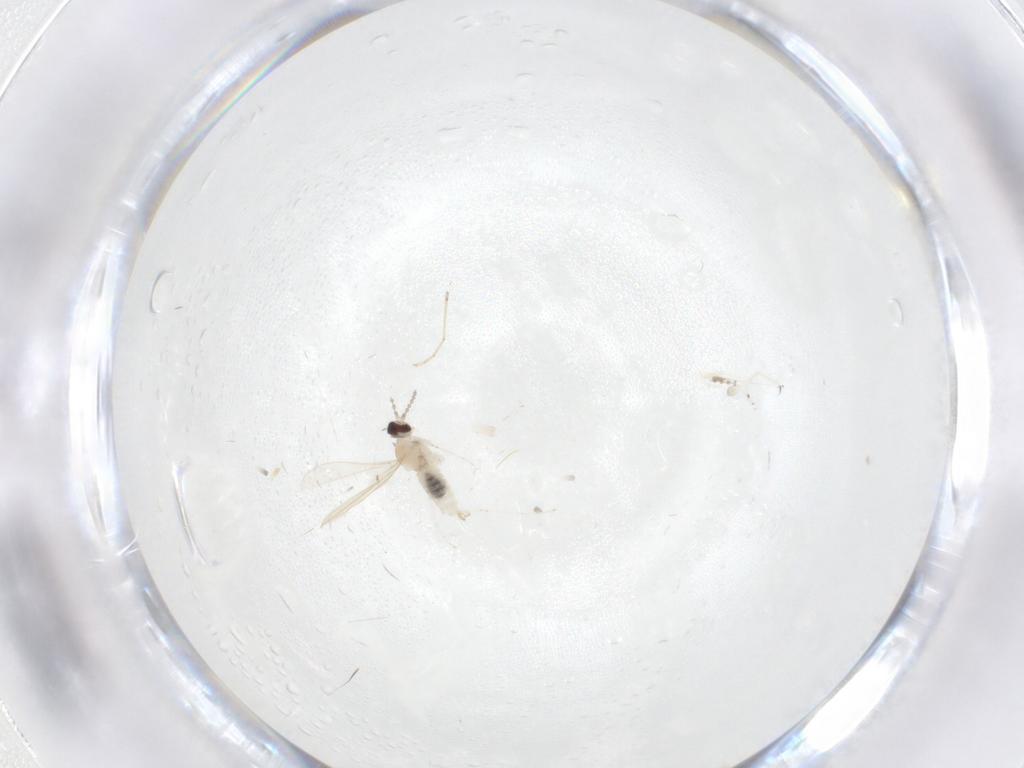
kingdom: Animalia
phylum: Arthropoda
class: Insecta
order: Diptera
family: Cecidomyiidae
